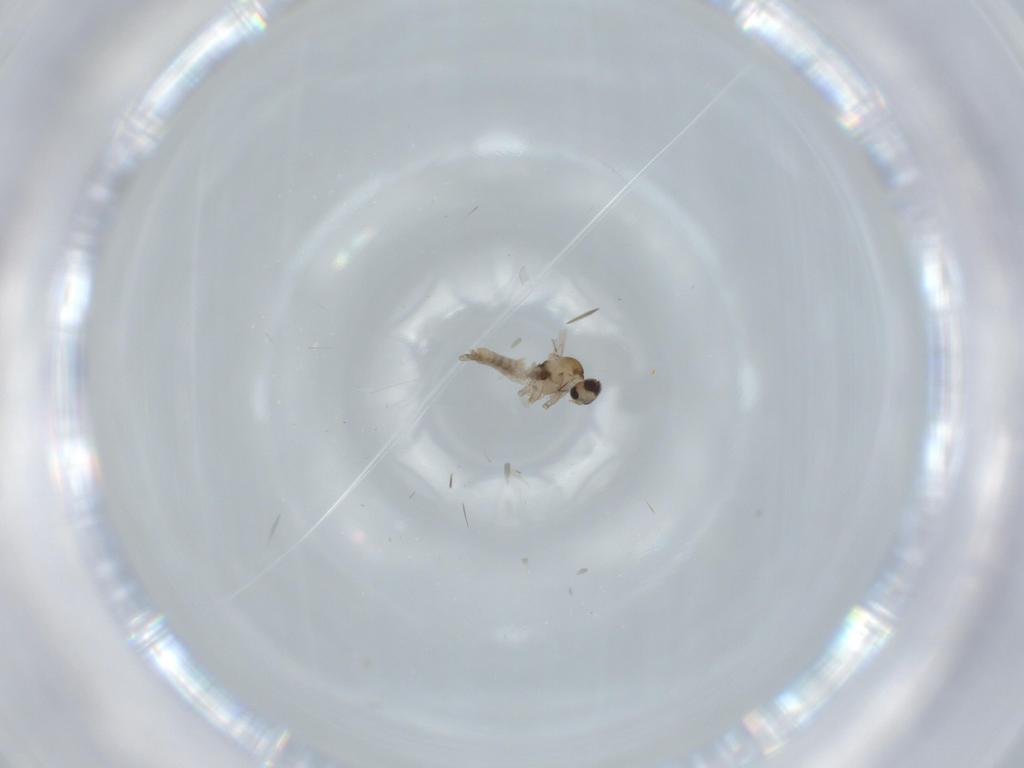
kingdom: Animalia
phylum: Arthropoda
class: Insecta
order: Diptera
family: Cecidomyiidae
